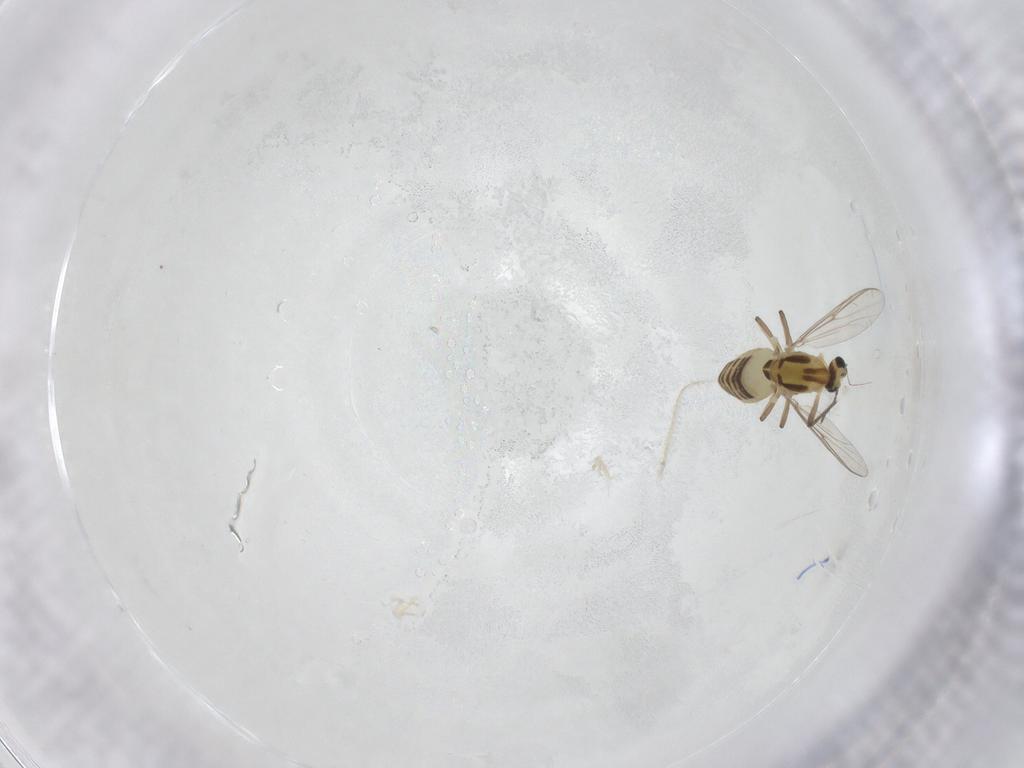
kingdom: Animalia
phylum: Arthropoda
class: Insecta
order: Diptera
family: Chironomidae
